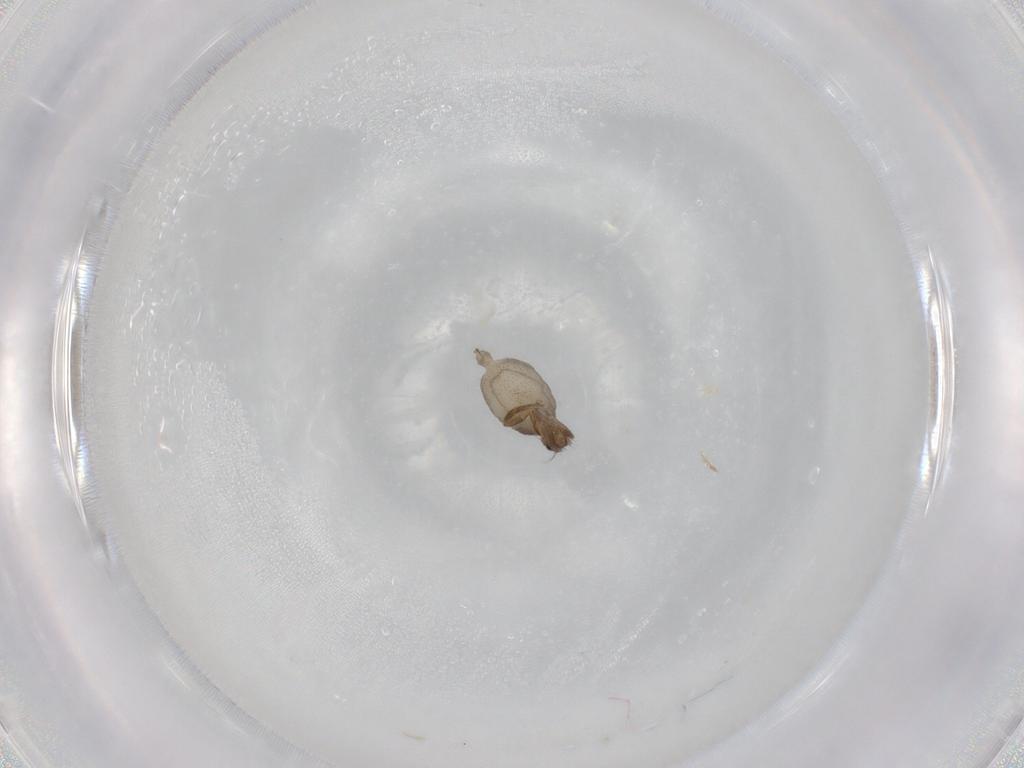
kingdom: Animalia
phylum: Arthropoda
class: Insecta
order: Diptera
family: Phoridae
